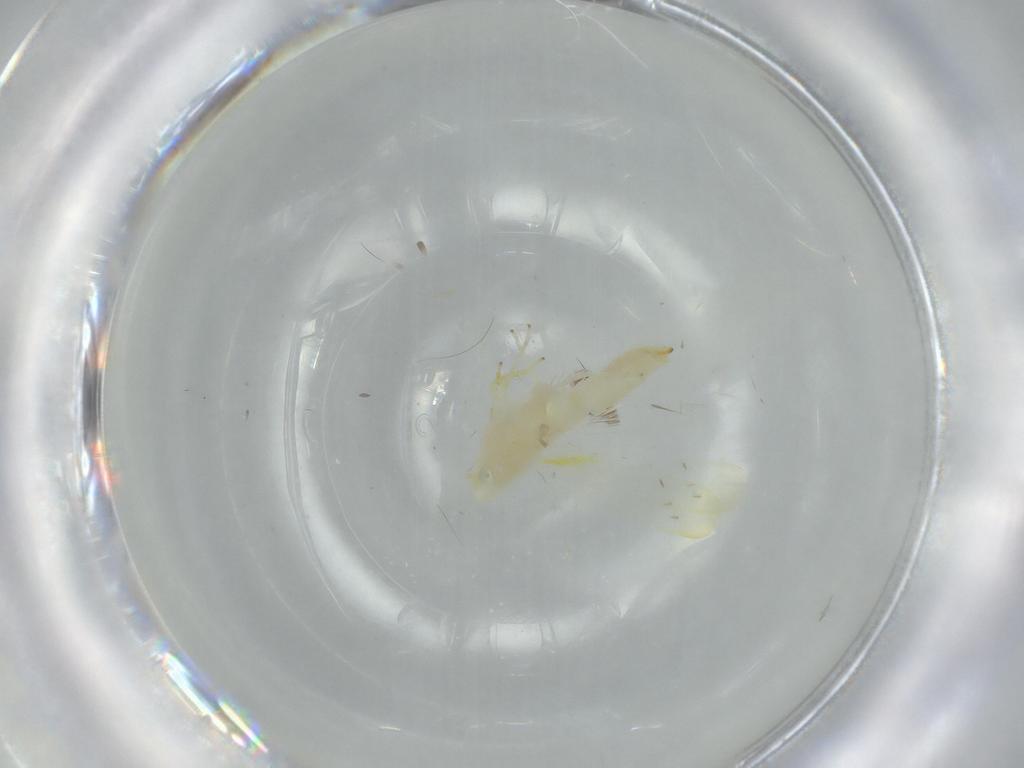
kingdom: Animalia
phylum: Arthropoda
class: Insecta
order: Hemiptera
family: Cicadellidae
